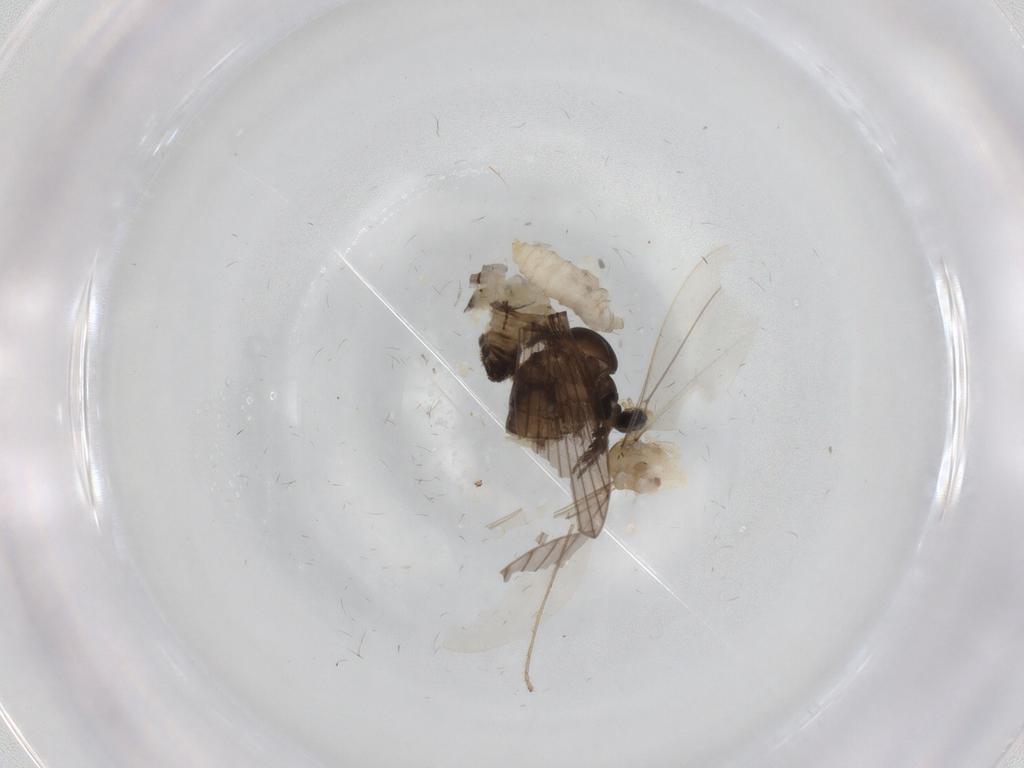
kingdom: Animalia
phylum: Arthropoda
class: Insecta
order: Diptera
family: Cecidomyiidae
